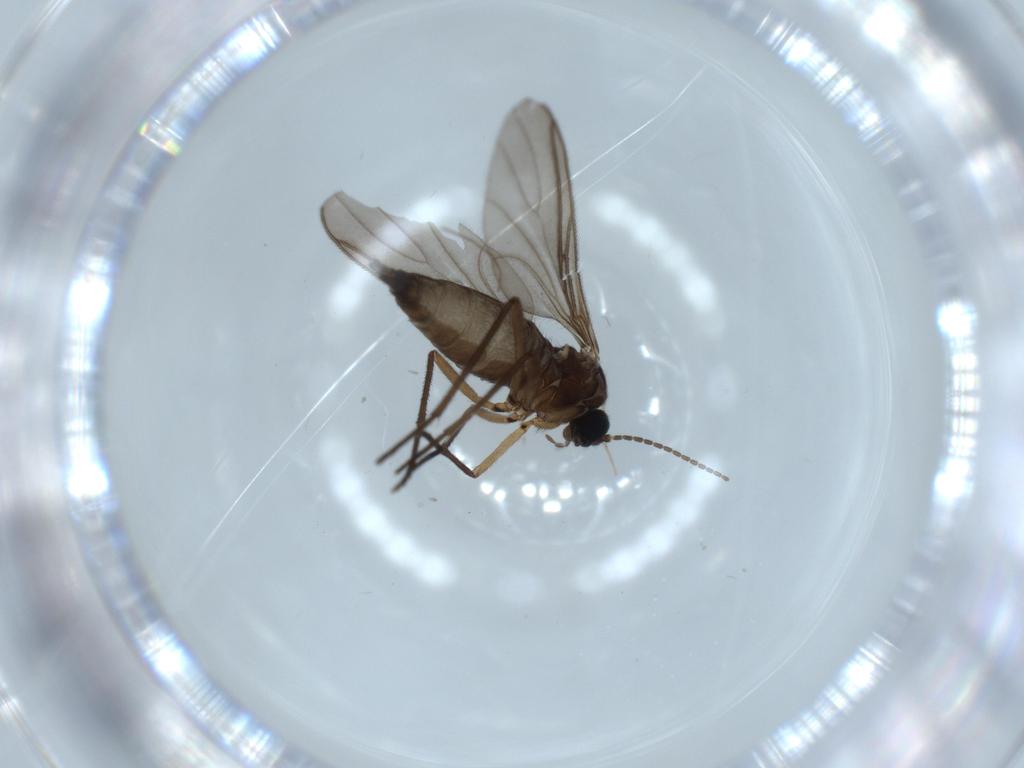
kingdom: Animalia
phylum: Arthropoda
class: Insecta
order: Diptera
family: Chironomidae
